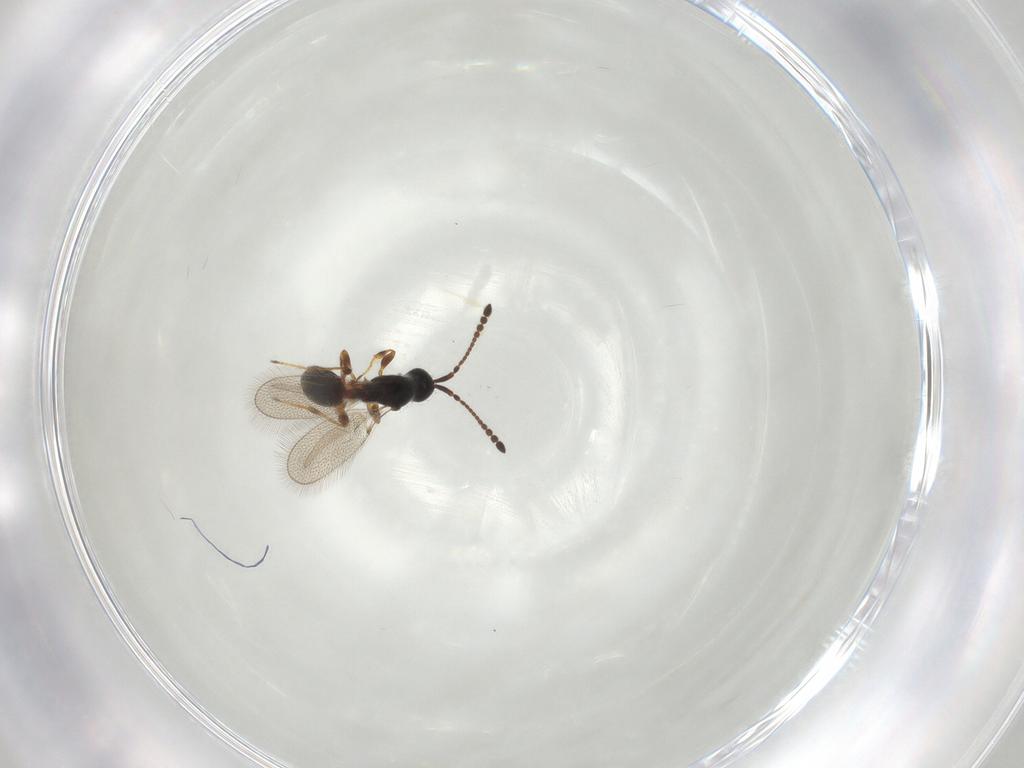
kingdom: Animalia
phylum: Arthropoda
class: Insecta
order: Hymenoptera
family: Diapriidae
